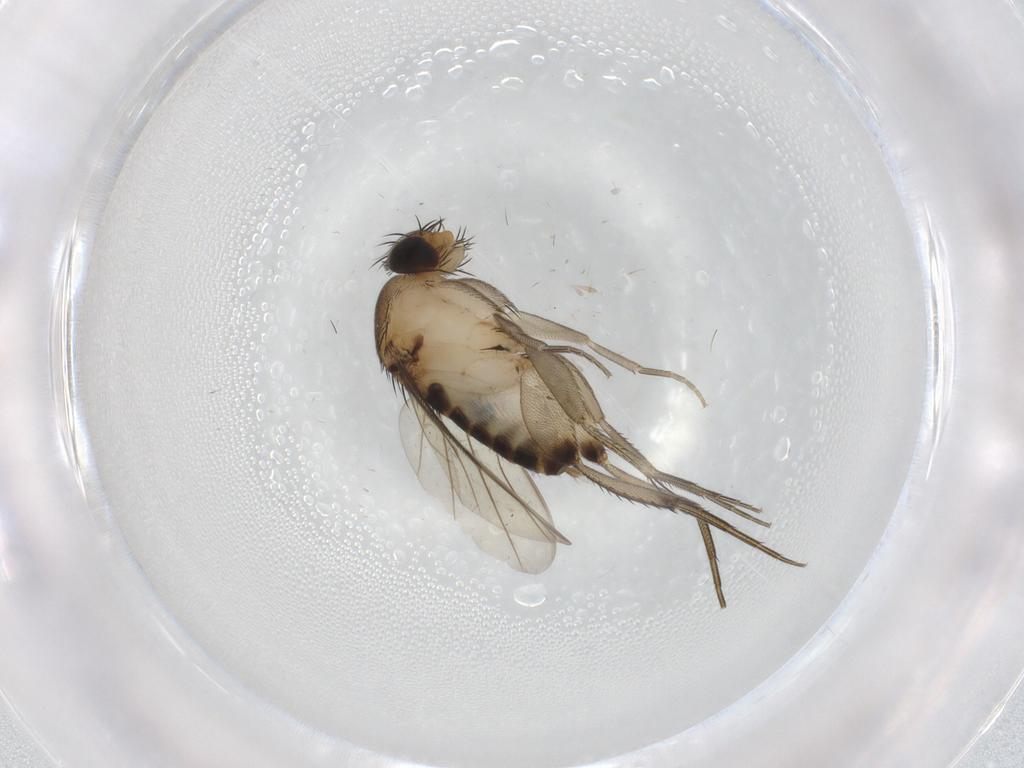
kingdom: Animalia
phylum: Arthropoda
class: Insecta
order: Diptera
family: Phoridae
